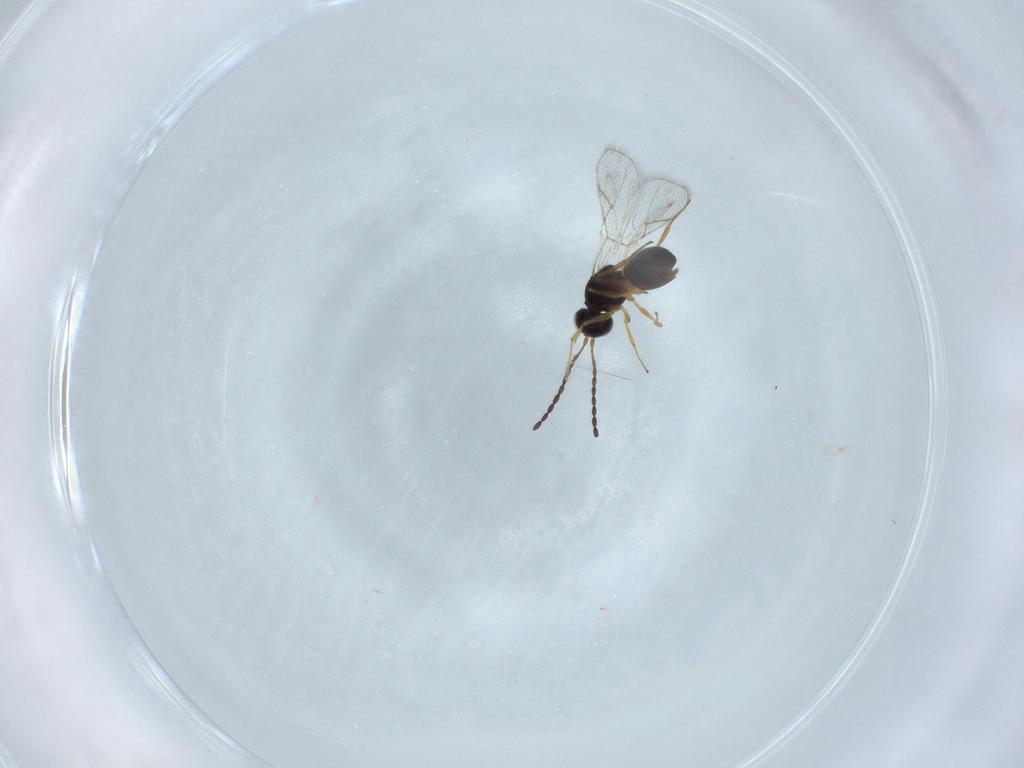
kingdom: Animalia
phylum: Arthropoda
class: Insecta
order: Hymenoptera
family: Figitidae
